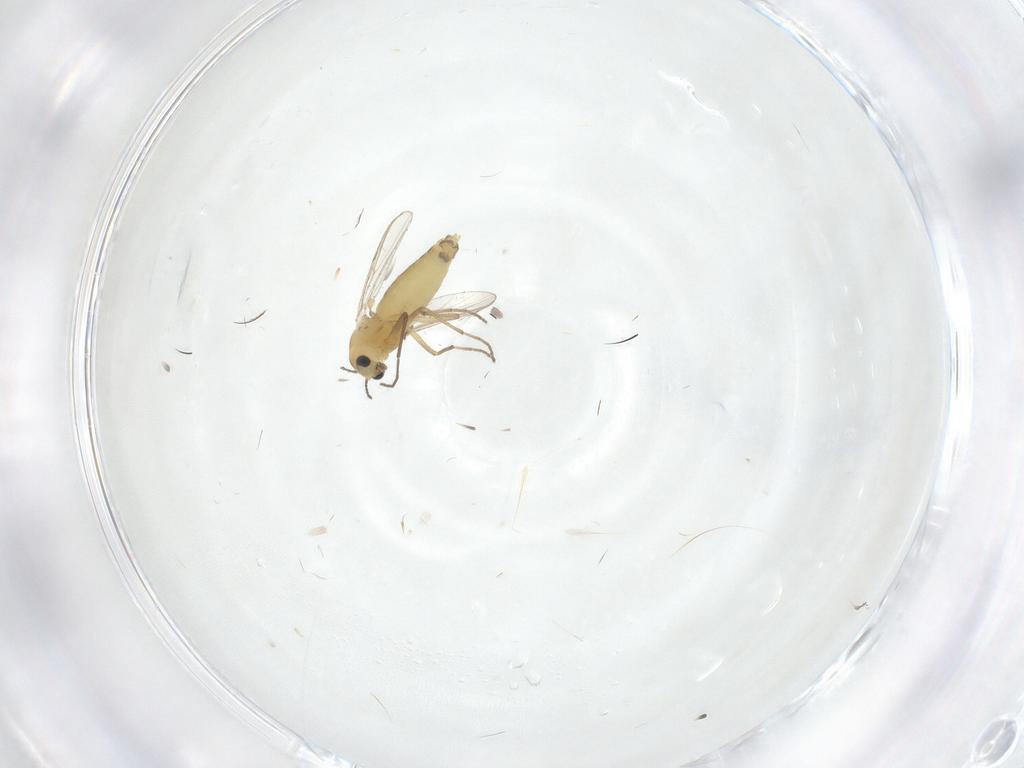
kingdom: Animalia
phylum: Arthropoda
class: Insecta
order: Diptera
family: Chironomidae
